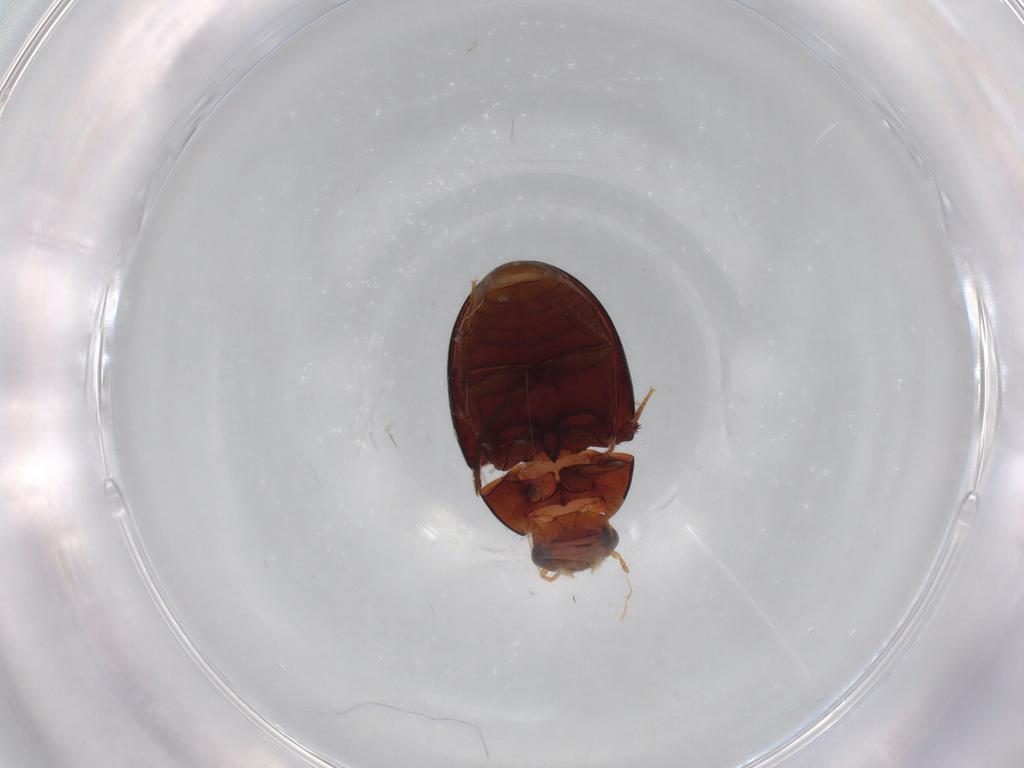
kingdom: Animalia
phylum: Arthropoda
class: Insecta
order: Coleoptera
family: Hydrophilidae
